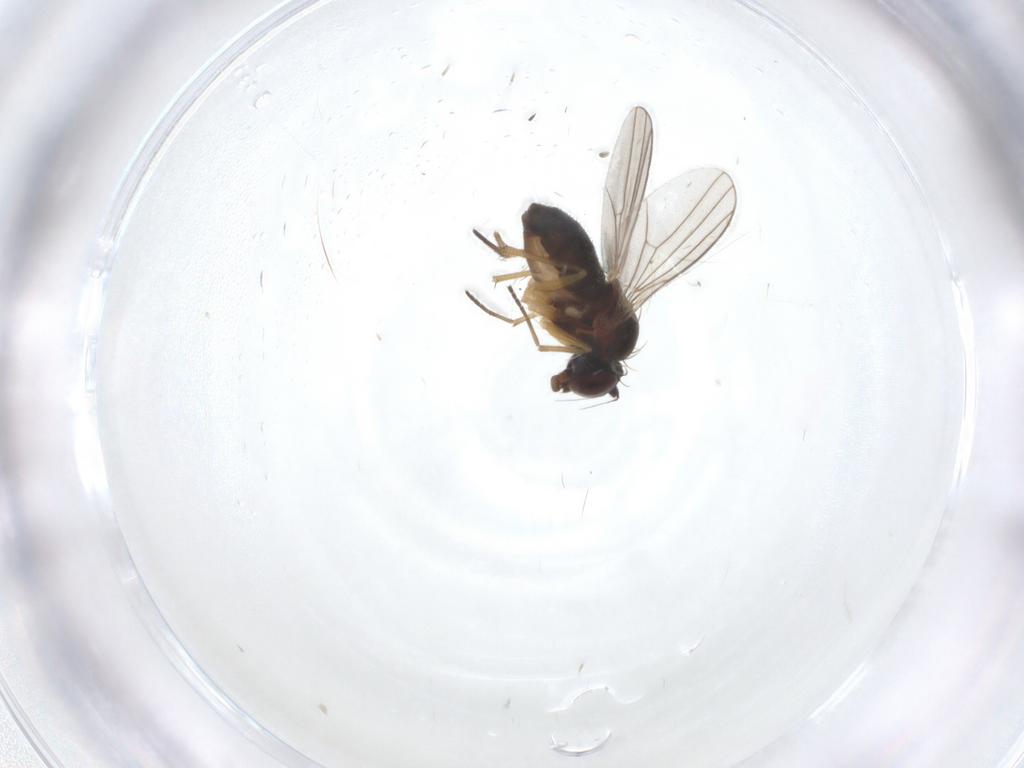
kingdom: Animalia
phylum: Arthropoda
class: Insecta
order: Diptera
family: Dolichopodidae
